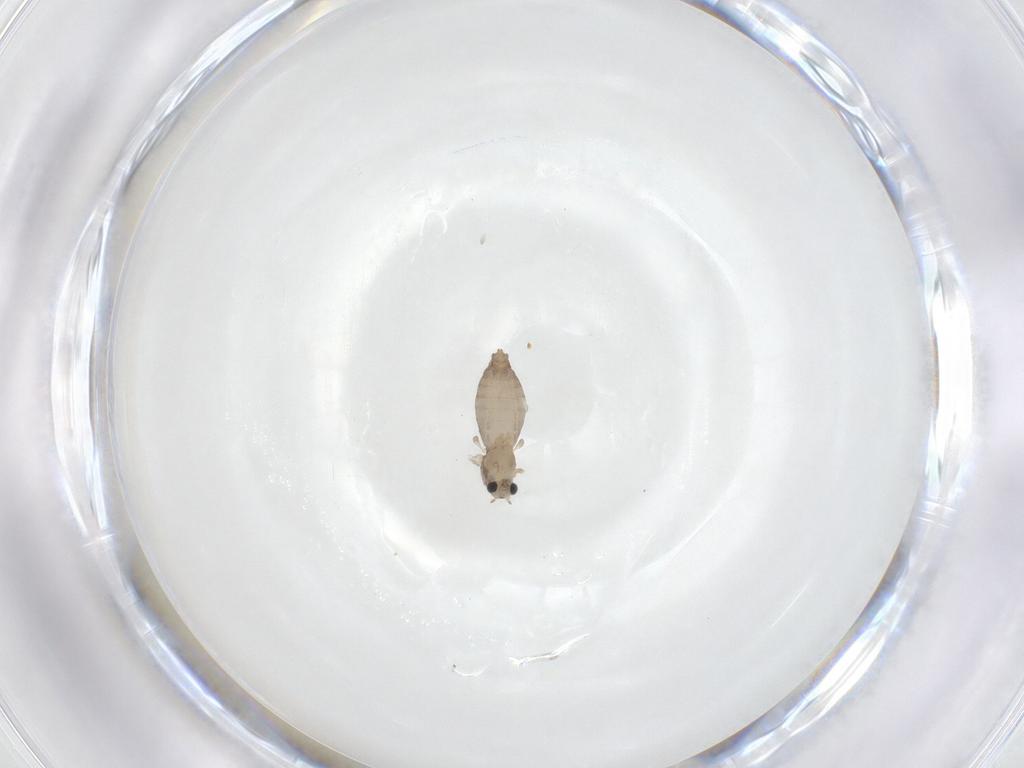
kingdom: Animalia
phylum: Arthropoda
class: Insecta
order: Diptera
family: Chironomidae
